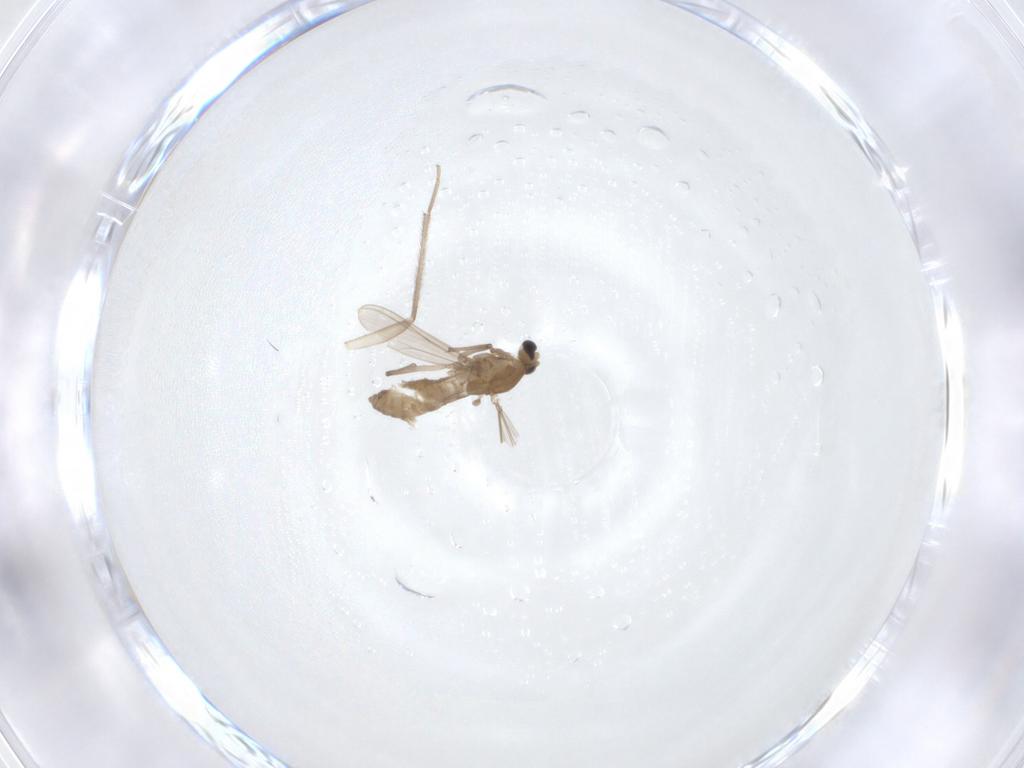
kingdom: Animalia
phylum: Arthropoda
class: Insecta
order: Diptera
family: Chironomidae
